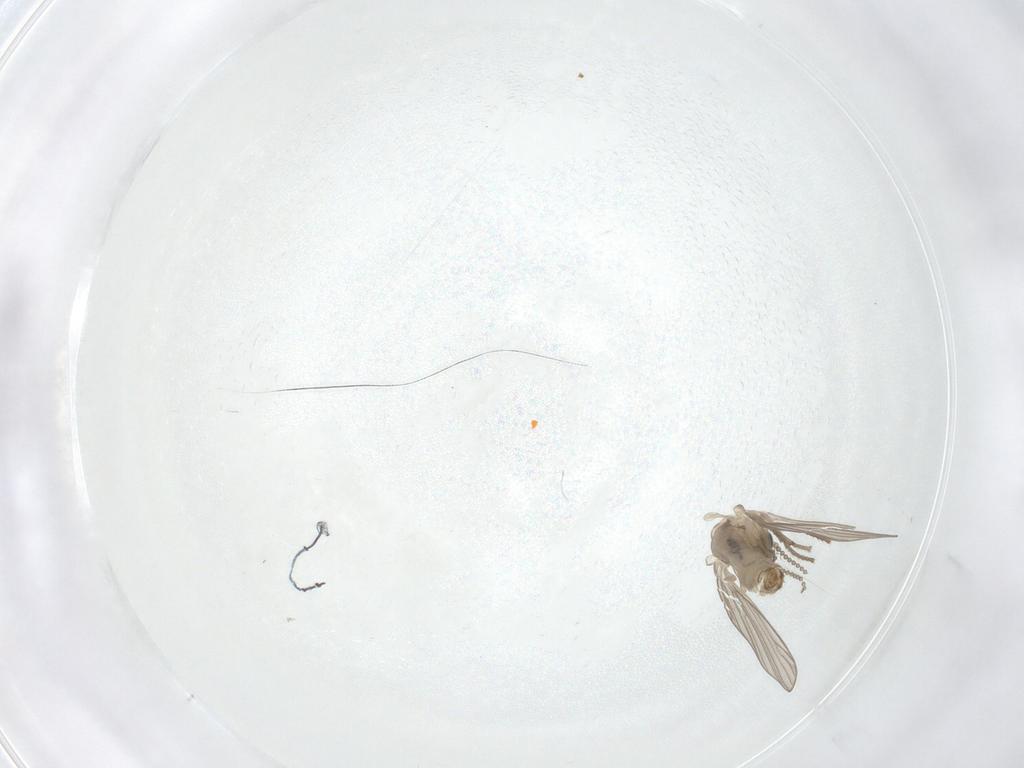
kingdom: Animalia
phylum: Arthropoda
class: Insecta
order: Diptera
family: Psychodidae
